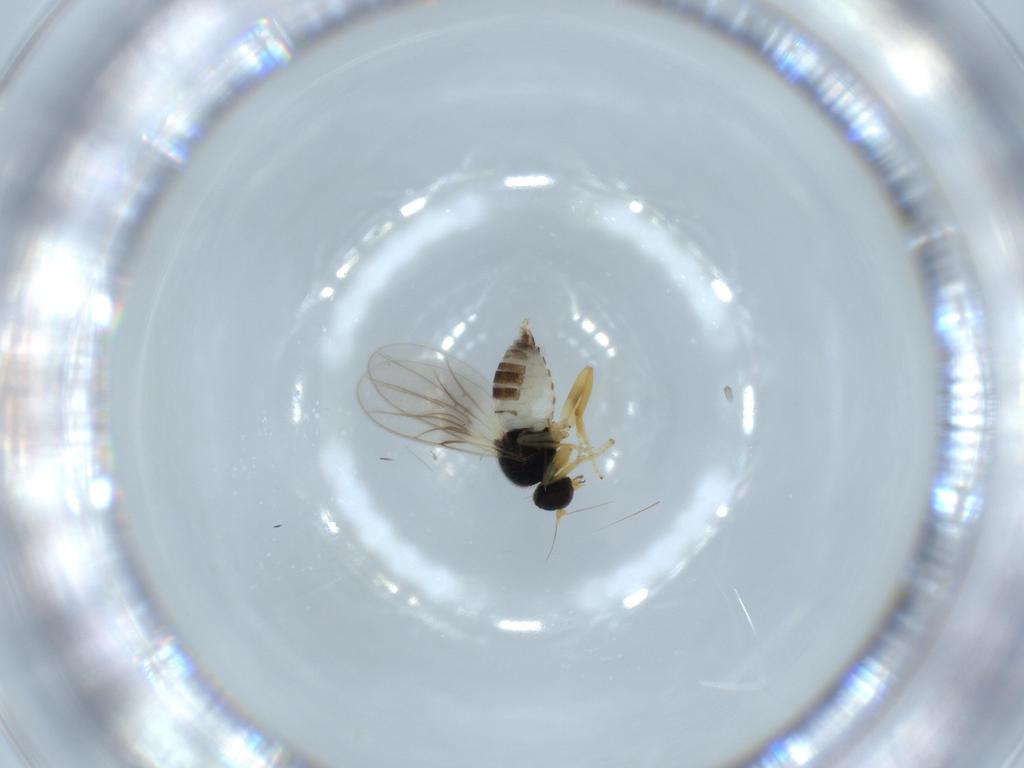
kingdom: Animalia
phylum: Arthropoda
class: Insecta
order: Diptera
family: Hybotidae
